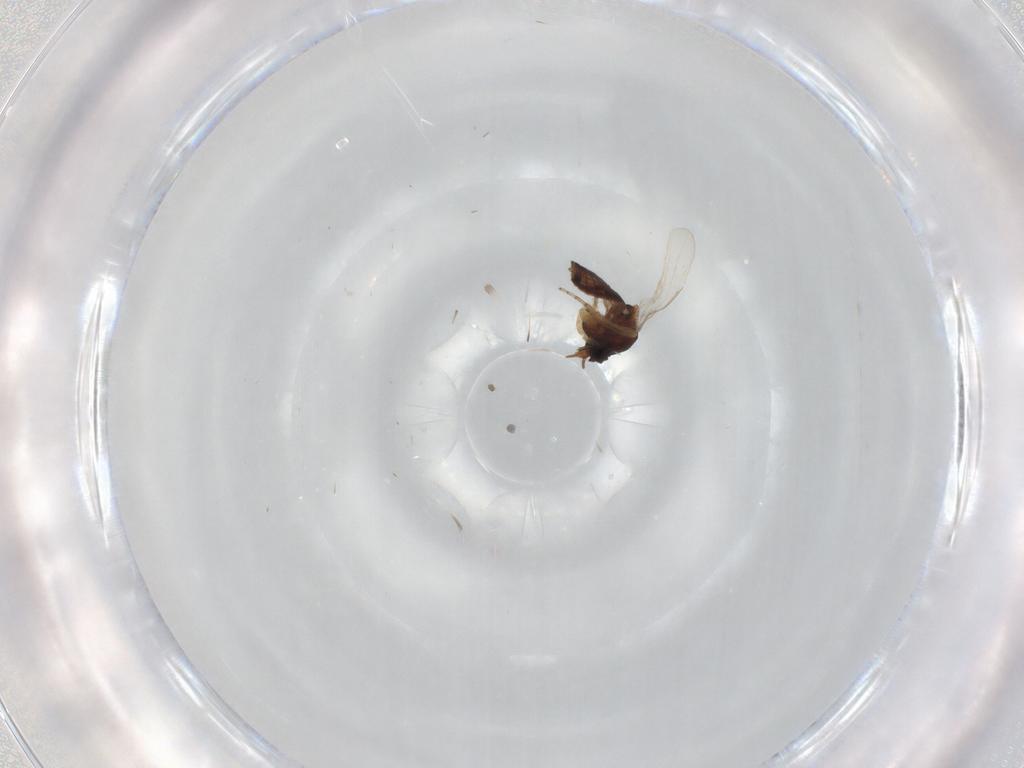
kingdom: Animalia
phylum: Arthropoda
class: Insecta
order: Diptera
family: Ceratopogonidae
